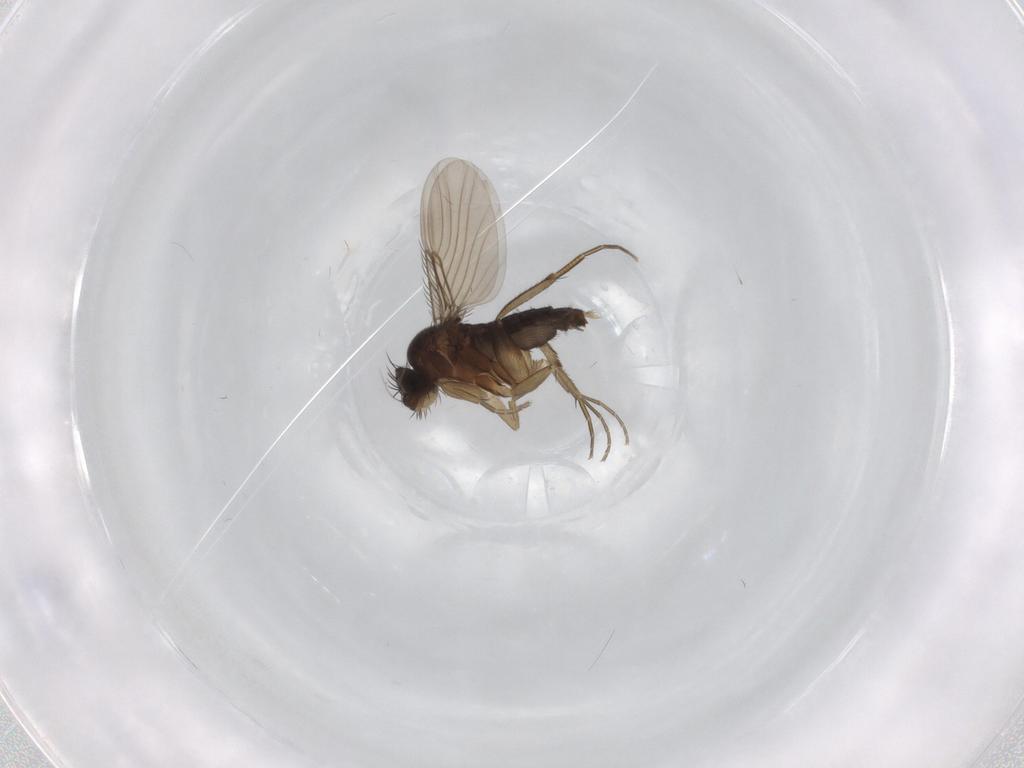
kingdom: Animalia
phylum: Arthropoda
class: Insecta
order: Diptera
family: Phoridae
